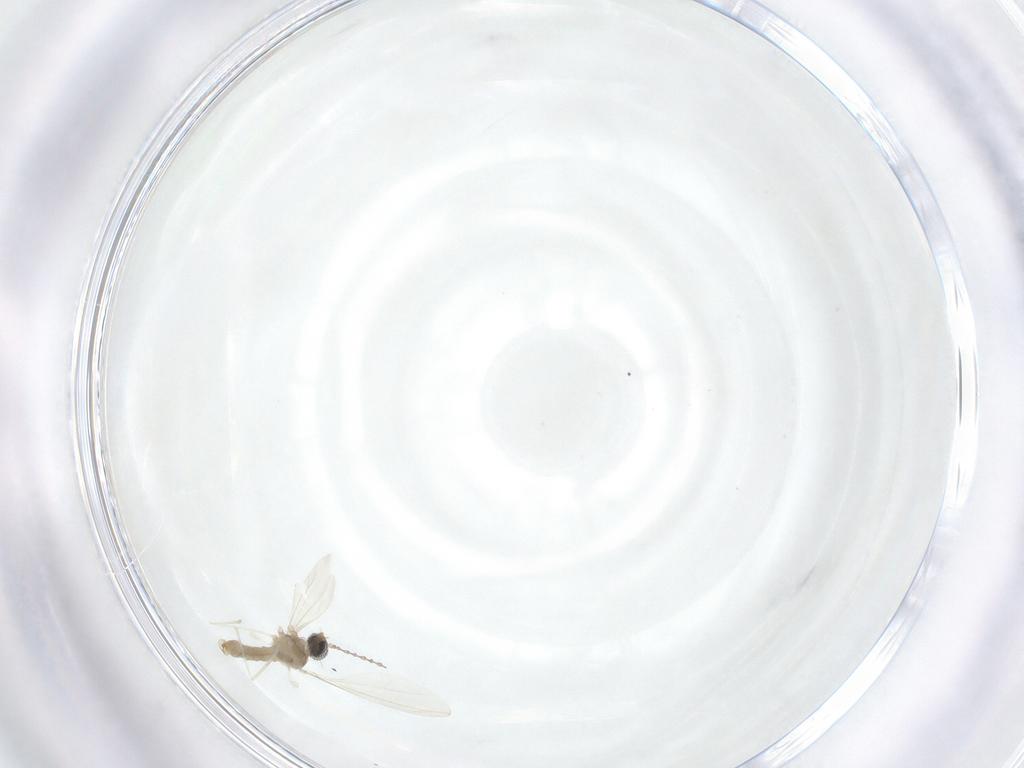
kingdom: Animalia
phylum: Arthropoda
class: Insecta
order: Diptera
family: Cecidomyiidae
